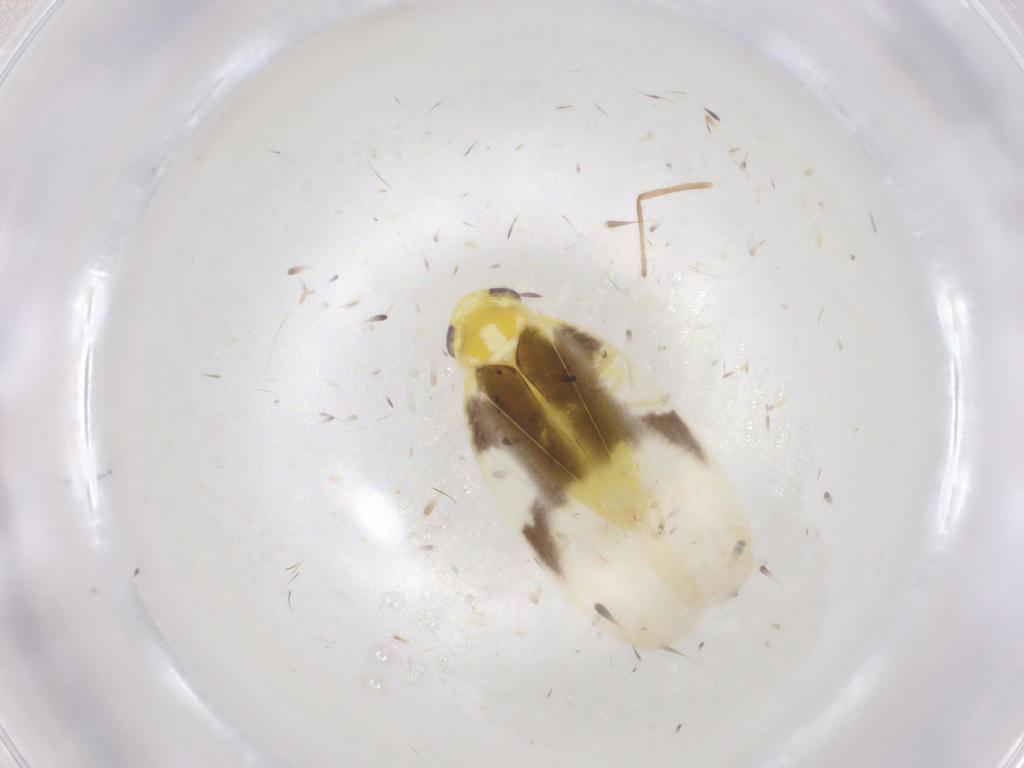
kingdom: Animalia
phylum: Arthropoda
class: Insecta
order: Hemiptera
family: Cicadellidae
